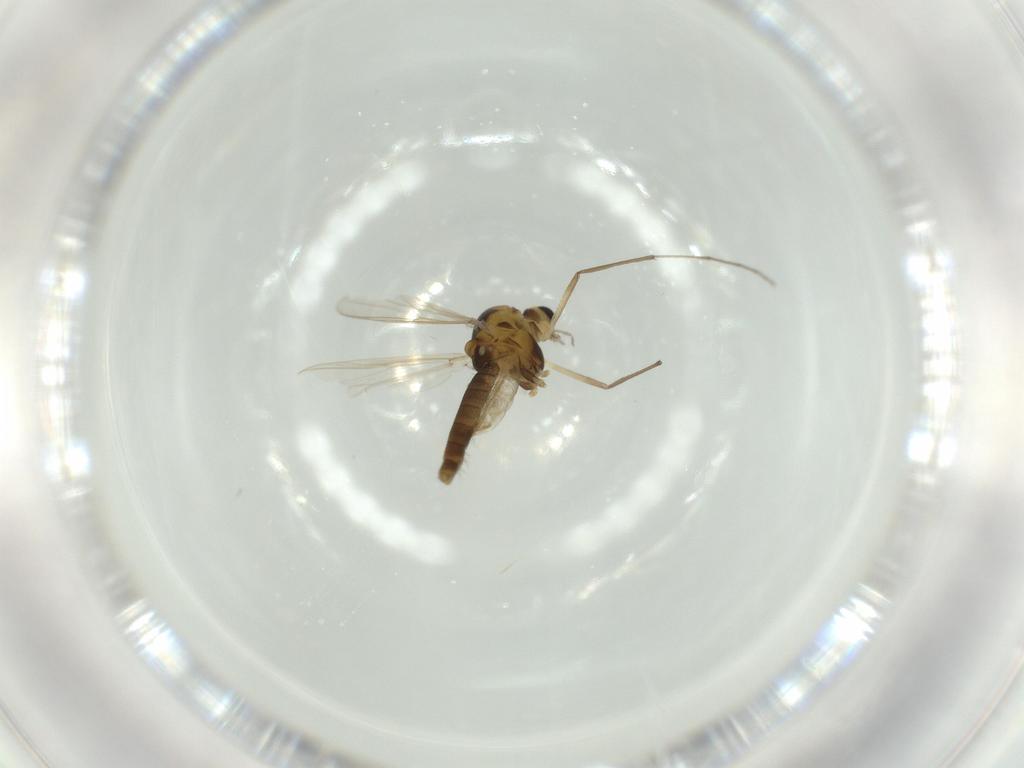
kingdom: Animalia
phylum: Arthropoda
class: Insecta
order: Diptera
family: Chironomidae
